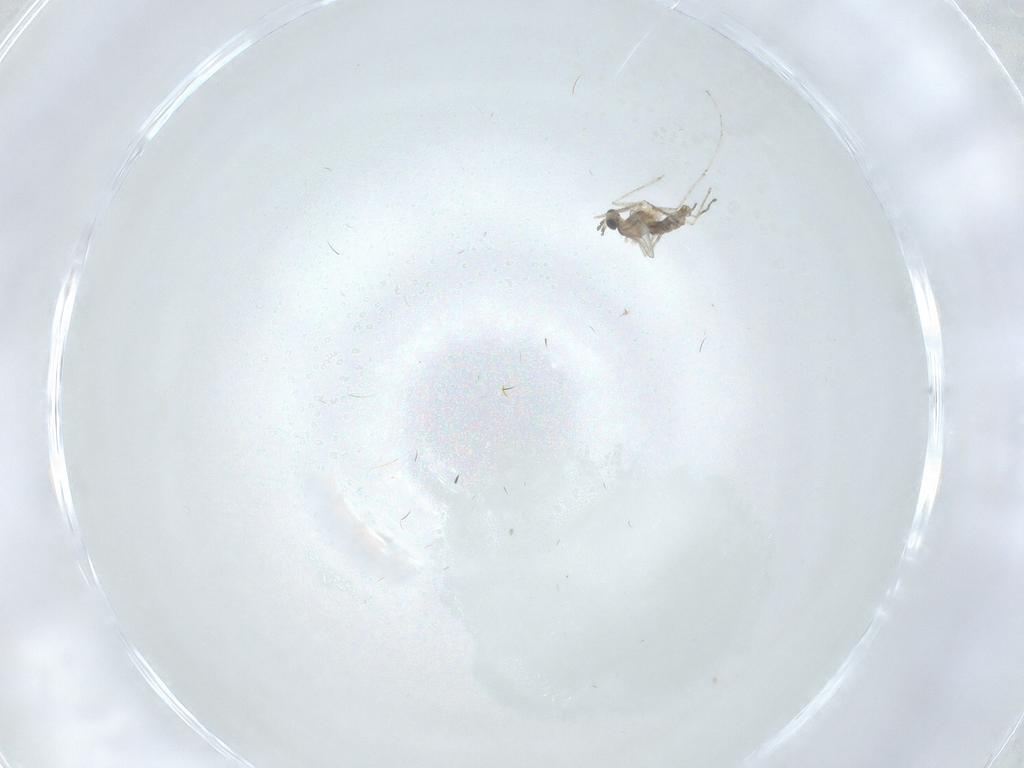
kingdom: Animalia
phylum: Arthropoda
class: Insecta
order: Diptera
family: Cecidomyiidae
